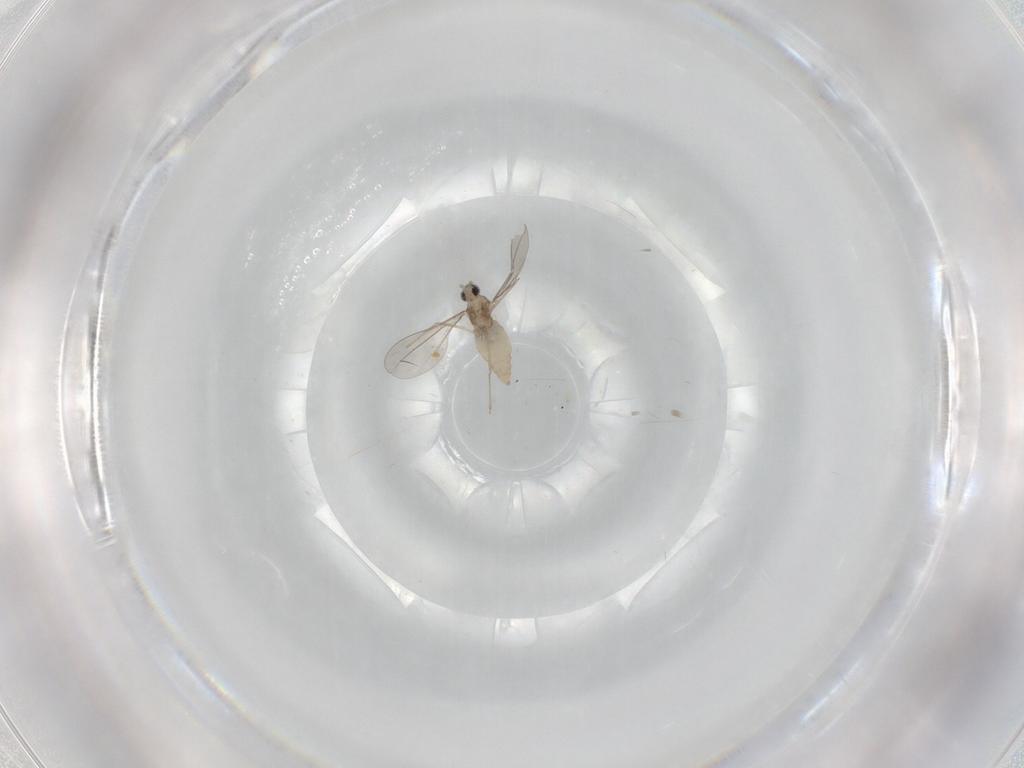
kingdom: Animalia
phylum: Arthropoda
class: Insecta
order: Diptera
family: Cecidomyiidae
